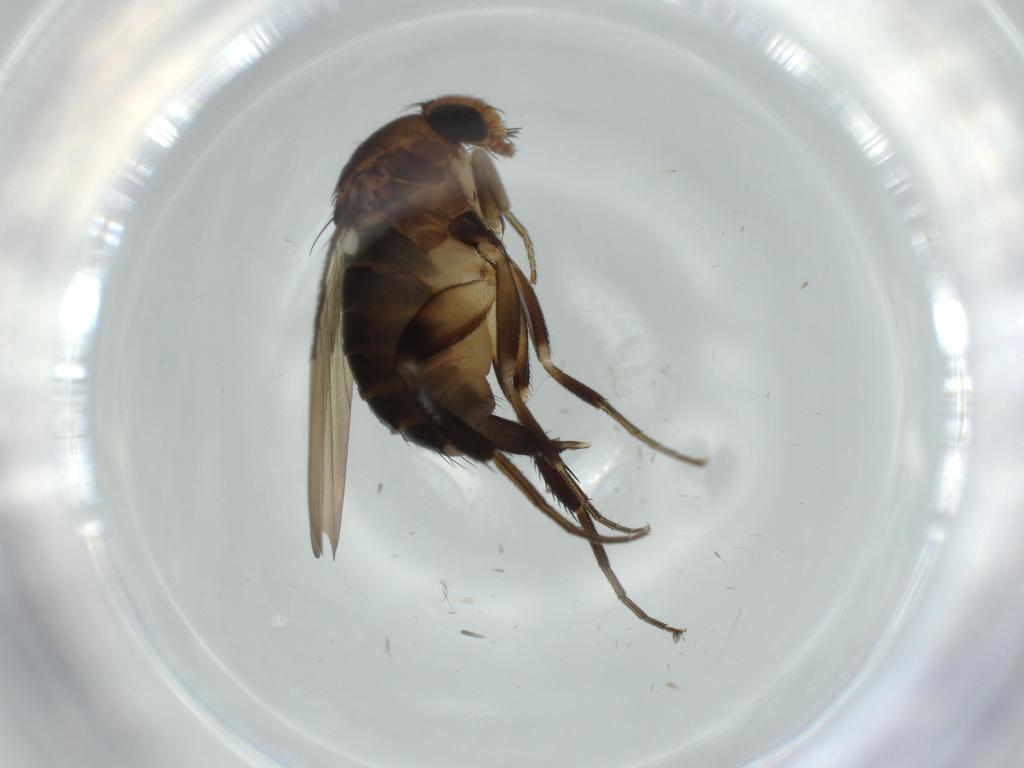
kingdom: Animalia
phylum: Arthropoda
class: Insecta
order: Diptera
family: Phoridae
